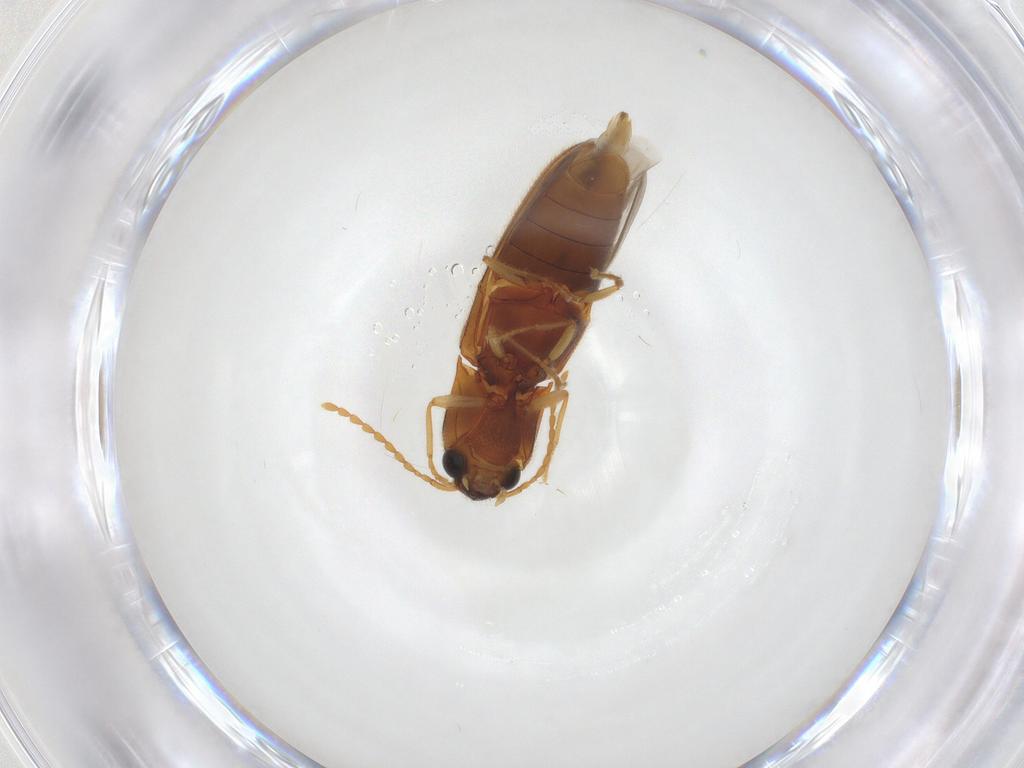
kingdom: Animalia
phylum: Arthropoda
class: Insecta
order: Coleoptera
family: Elateridae
